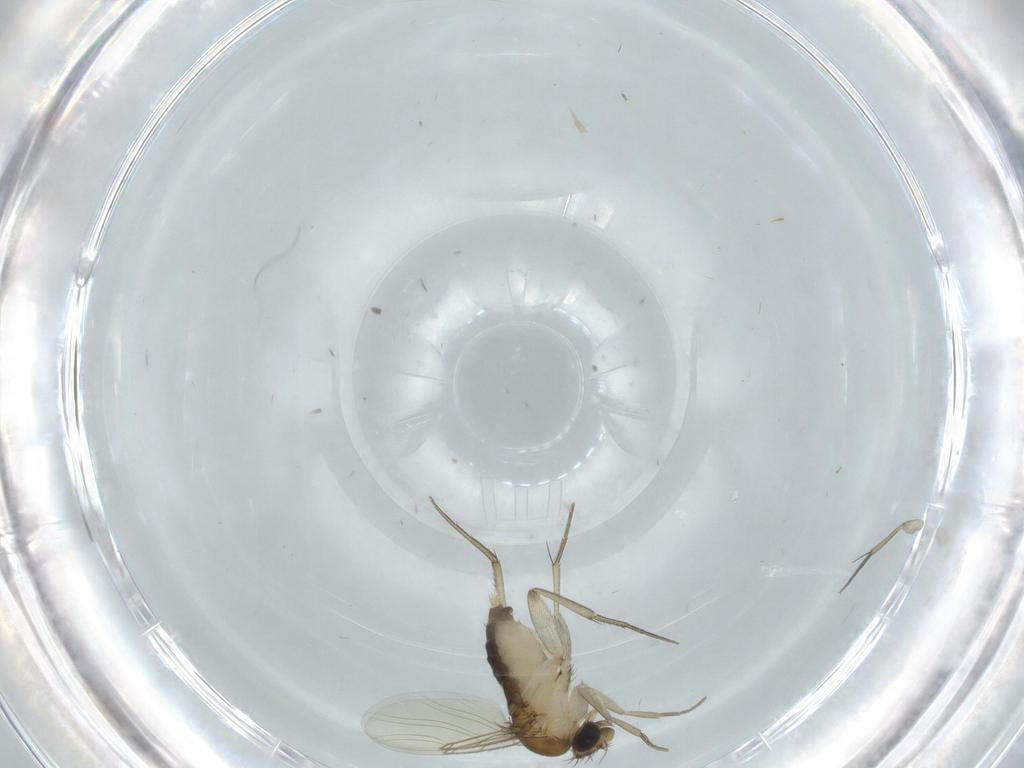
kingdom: Animalia
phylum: Arthropoda
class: Insecta
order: Diptera
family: Phoridae
